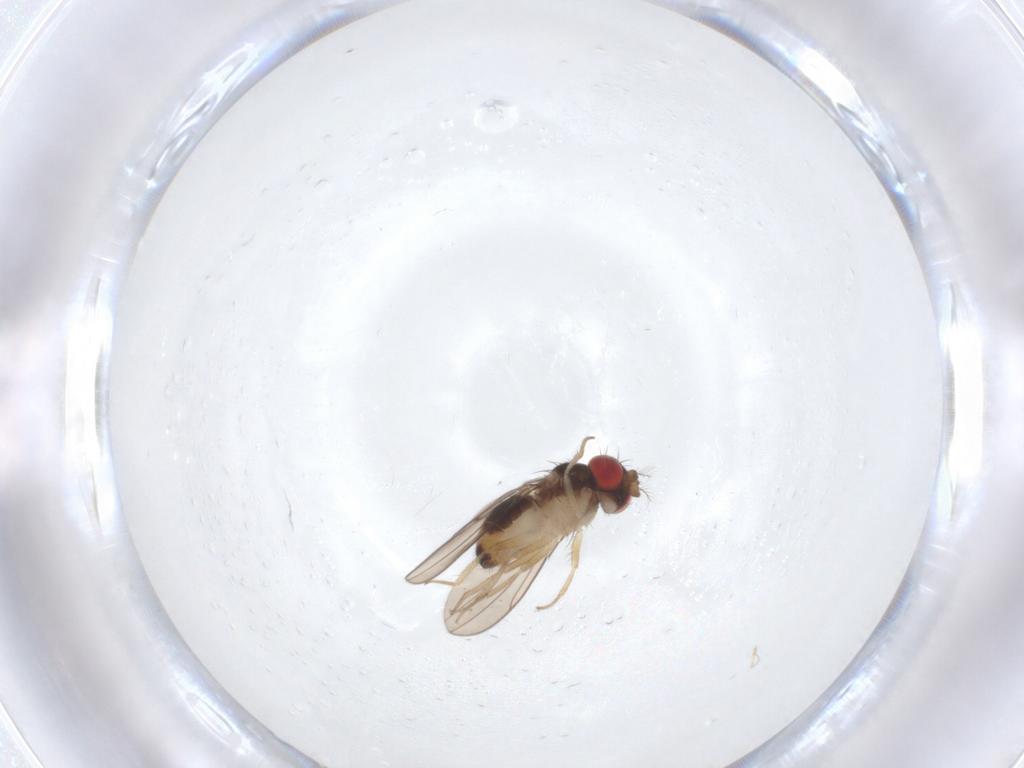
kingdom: Animalia
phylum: Arthropoda
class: Insecta
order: Diptera
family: Drosophilidae
